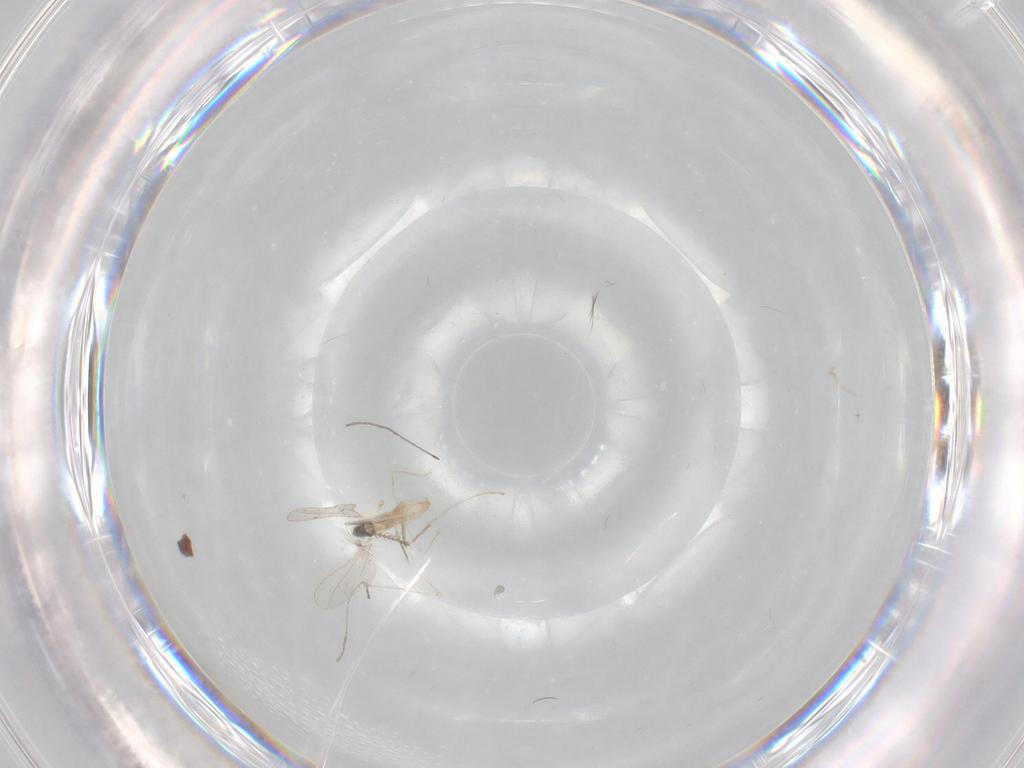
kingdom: Animalia
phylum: Arthropoda
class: Insecta
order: Diptera
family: Cecidomyiidae
